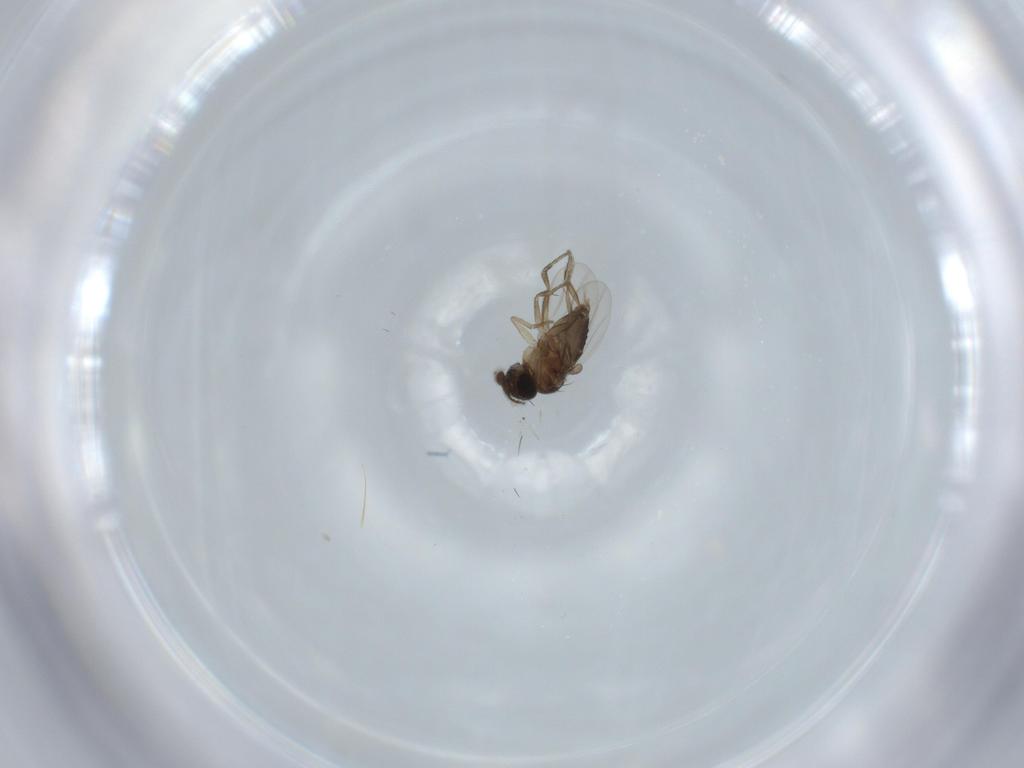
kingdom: Animalia
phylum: Arthropoda
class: Insecta
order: Diptera
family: Phoridae
